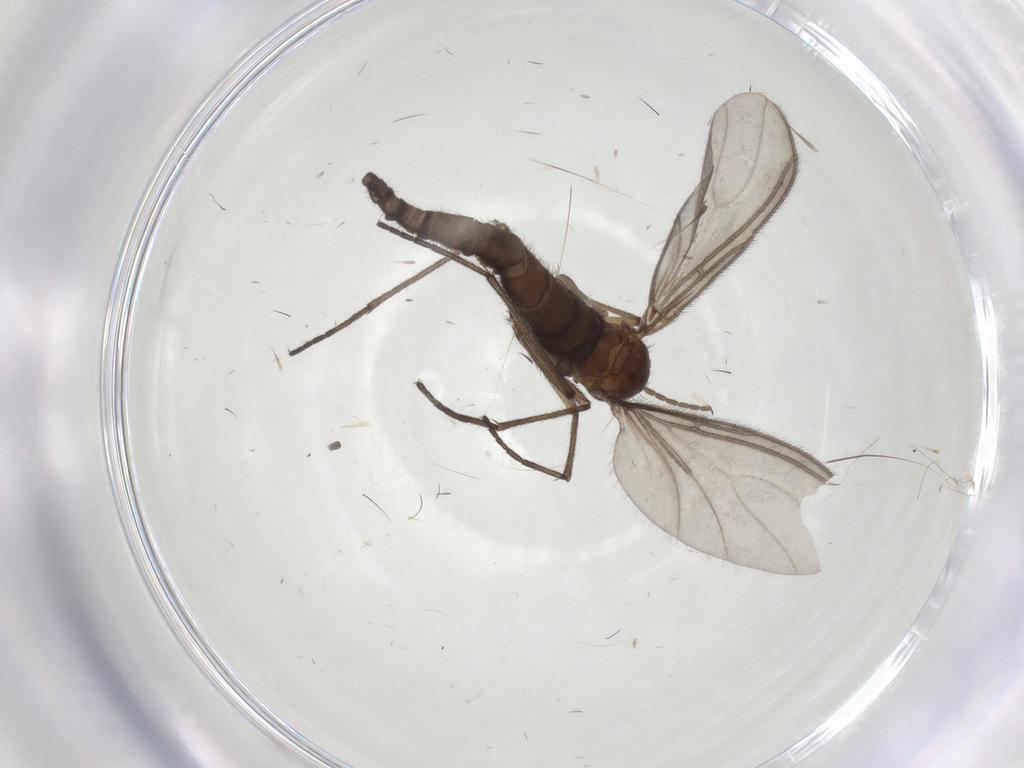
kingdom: Animalia
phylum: Arthropoda
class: Insecta
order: Diptera
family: Sciaridae
